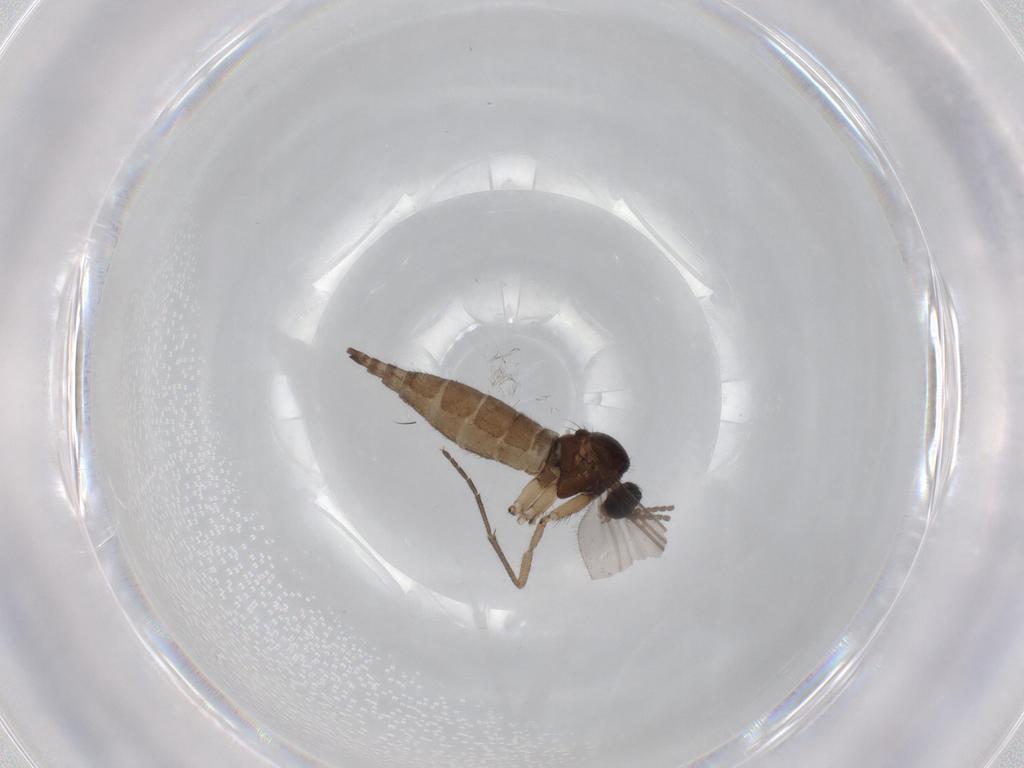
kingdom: Animalia
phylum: Arthropoda
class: Insecta
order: Diptera
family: Sciaridae
